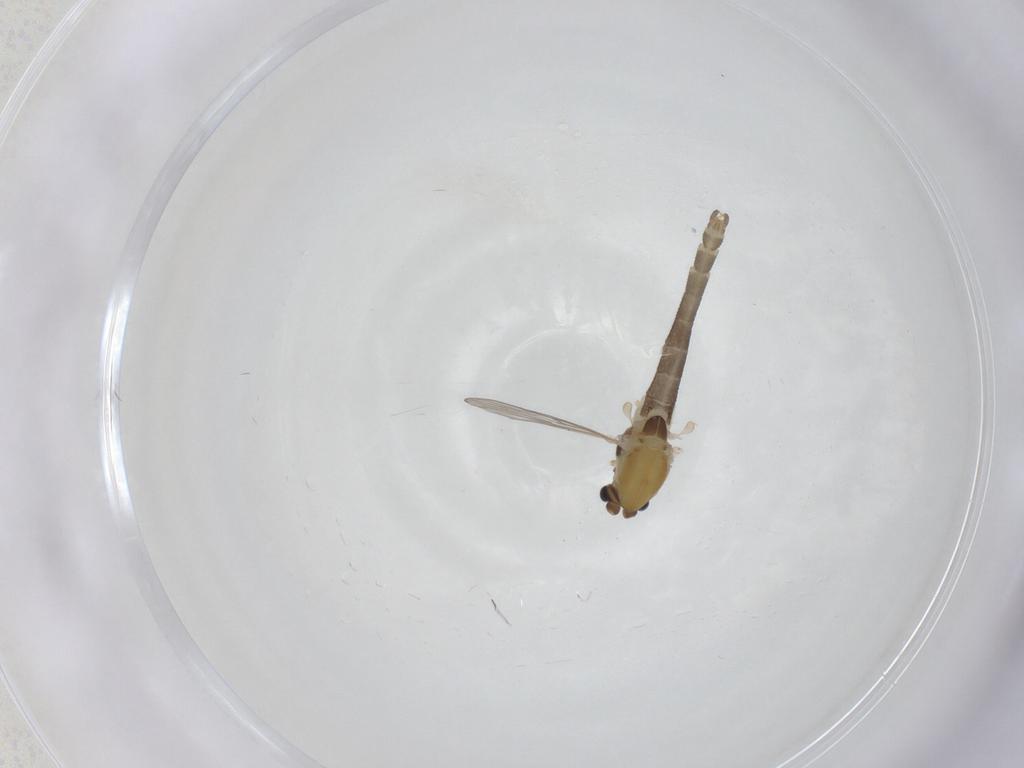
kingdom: Animalia
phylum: Arthropoda
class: Insecta
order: Diptera
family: Chironomidae
